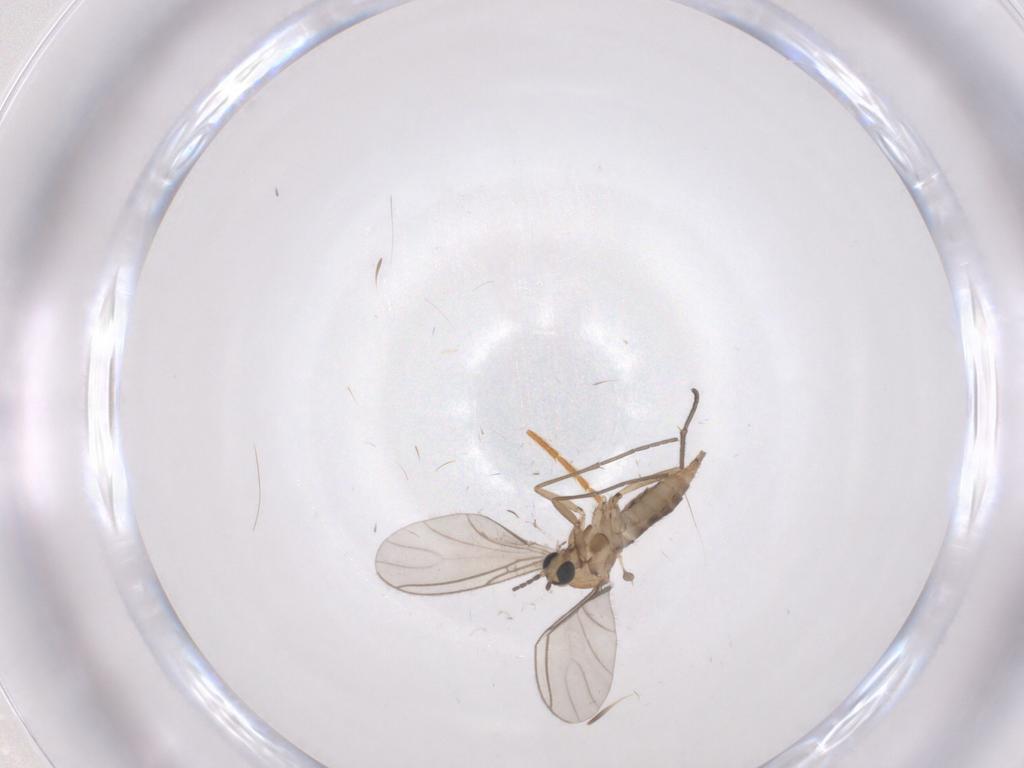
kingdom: Animalia
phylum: Arthropoda
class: Insecta
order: Diptera
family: Sciaridae
